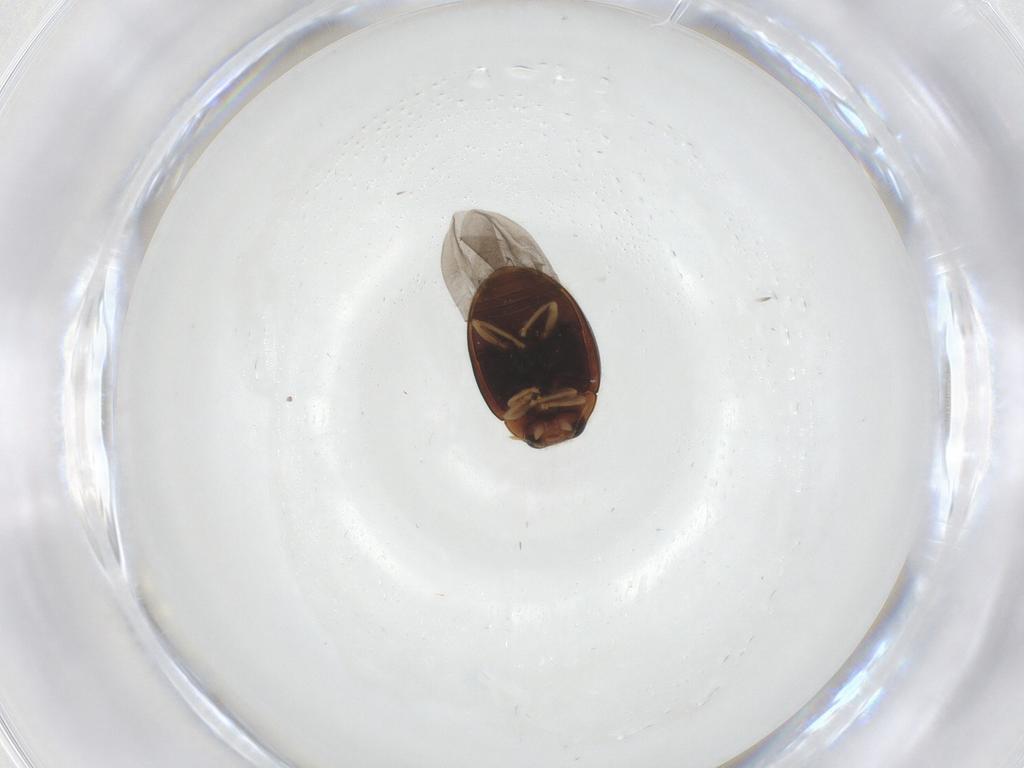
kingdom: Animalia
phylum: Arthropoda
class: Insecta
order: Coleoptera
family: Coccinellidae
